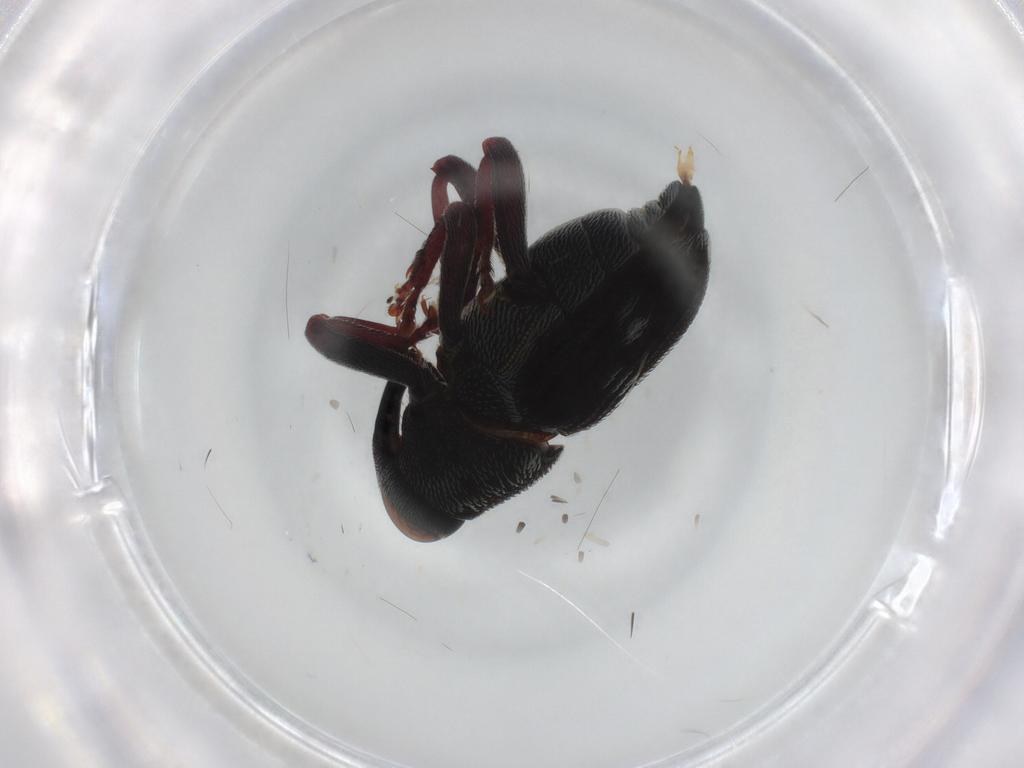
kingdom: Animalia
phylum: Arthropoda
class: Insecta
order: Coleoptera
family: Curculionidae
